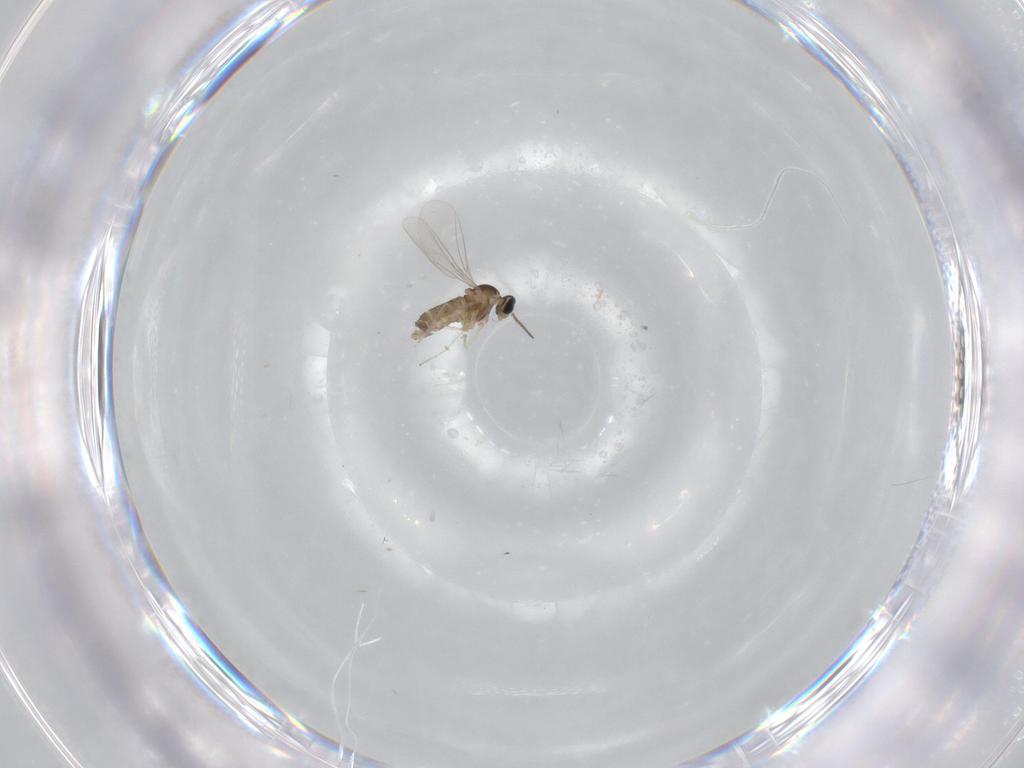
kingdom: Animalia
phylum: Arthropoda
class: Insecta
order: Diptera
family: Cecidomyiidae
